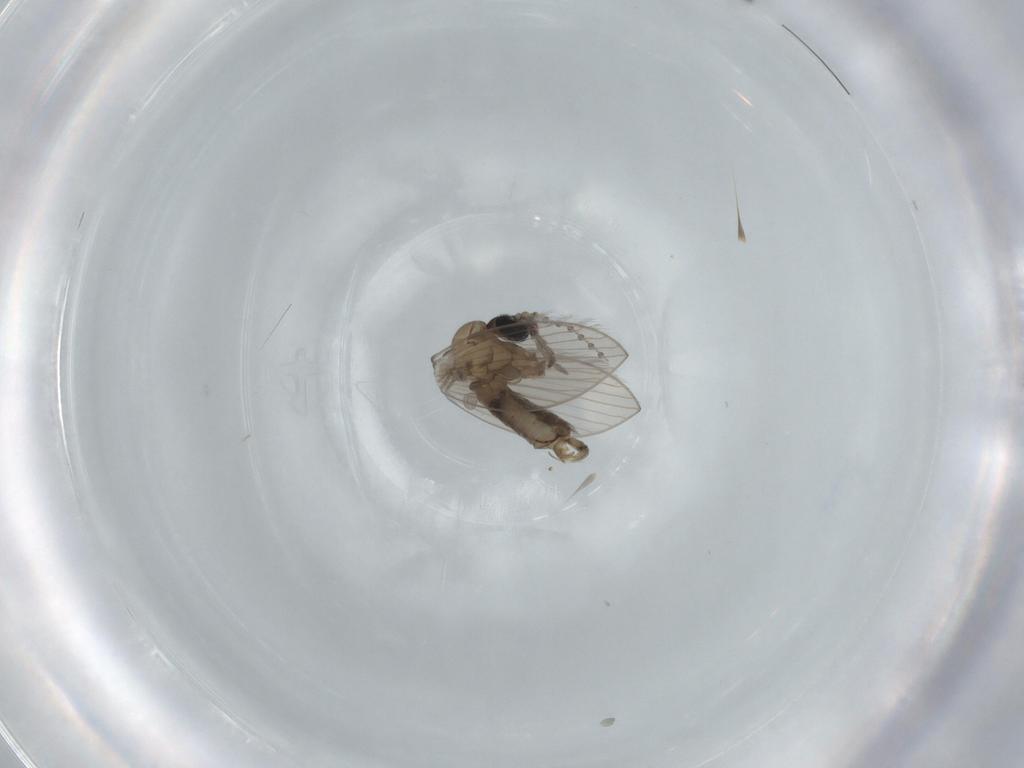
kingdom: Animalia
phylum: Arthropoda
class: Insecta
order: Diptera
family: Psychodidae
